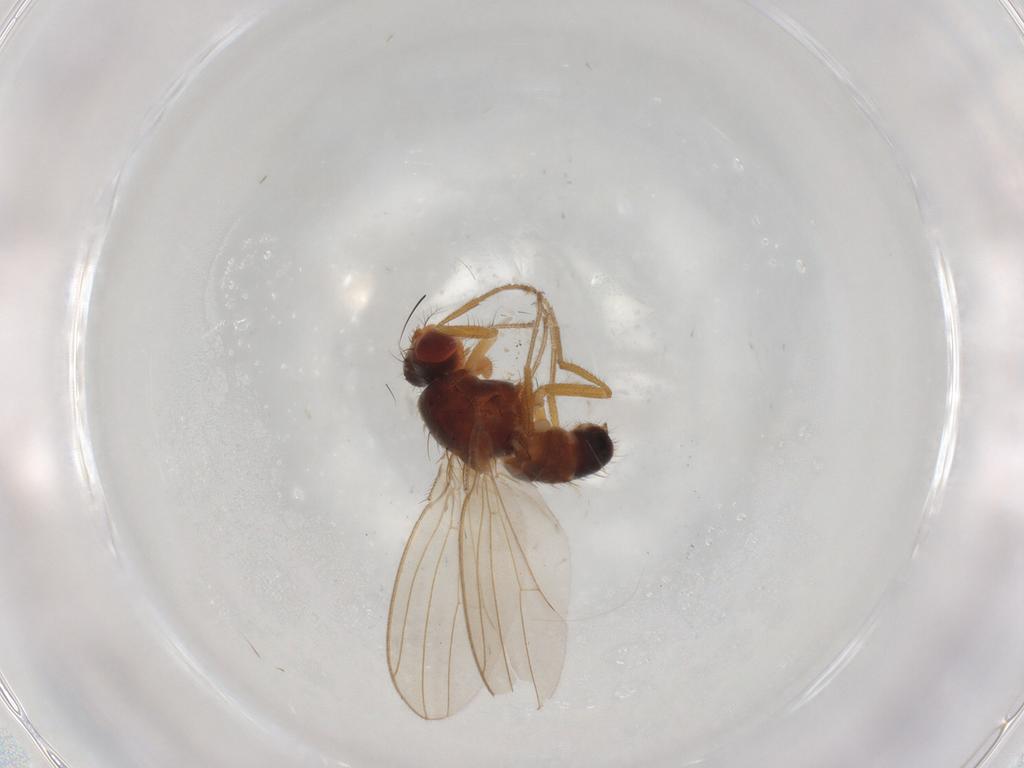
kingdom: Animalia
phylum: Arthropoda
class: Insecta
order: Diptera
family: Drosophilidae
